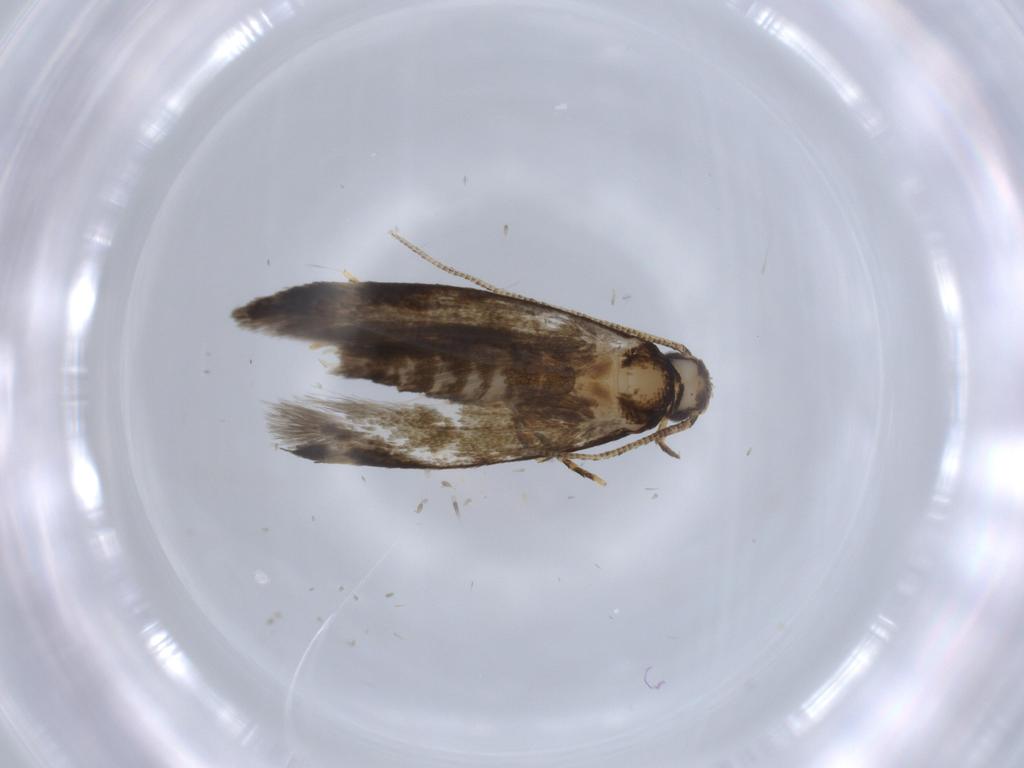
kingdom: Animalia
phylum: Arthropoda
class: Insecta
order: Lepidoptera
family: Tineidae
